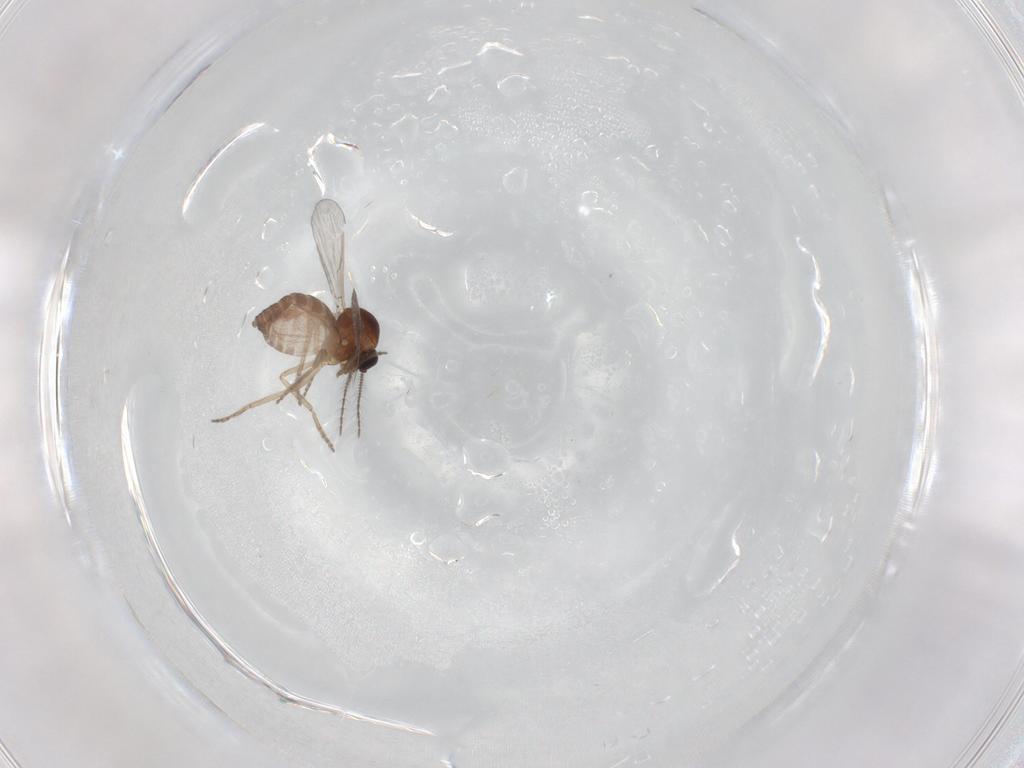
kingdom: Animalia
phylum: Arthropoda
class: Insecta
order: Diptera
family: Ceratopogonidae
